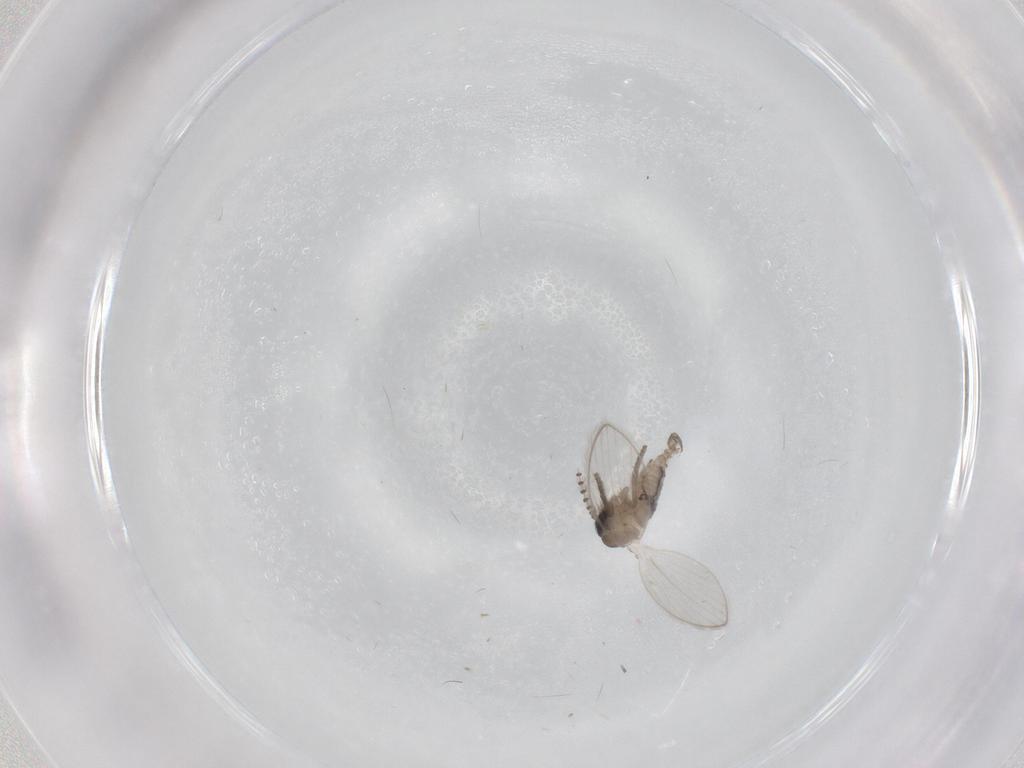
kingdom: Animalia
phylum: Arthropoda
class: Insecta
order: Diptera
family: Psychodidae
